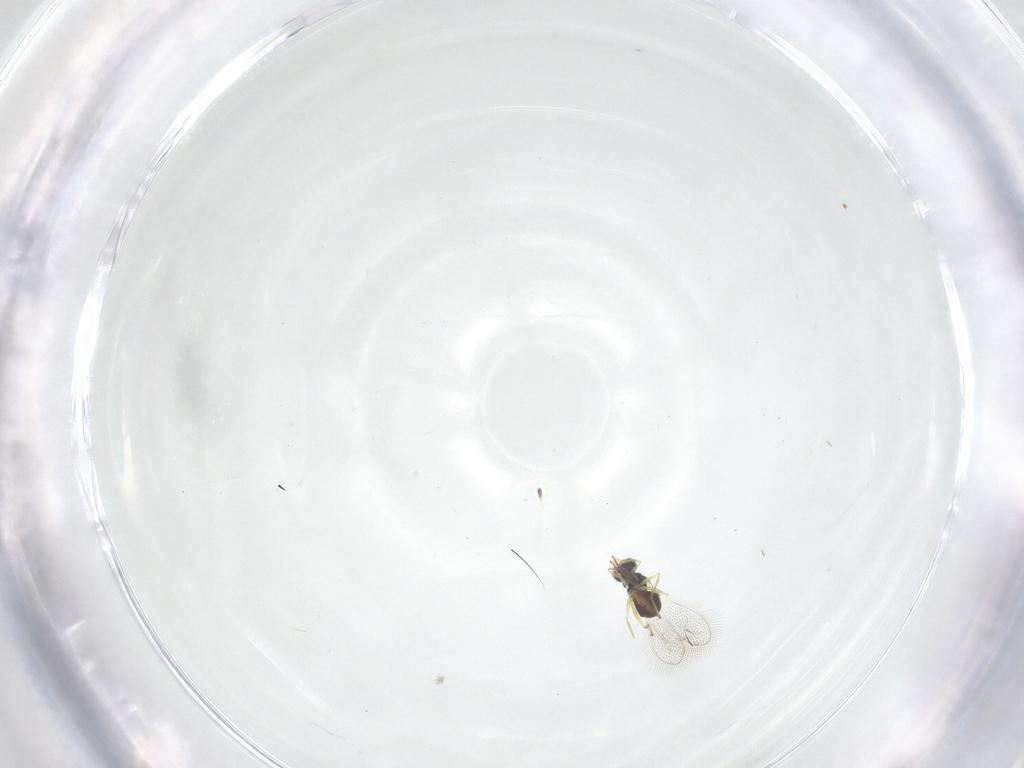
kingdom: Animalia
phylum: Arthropoda
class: Insecta
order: Hymenoptera
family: Mymaridae
